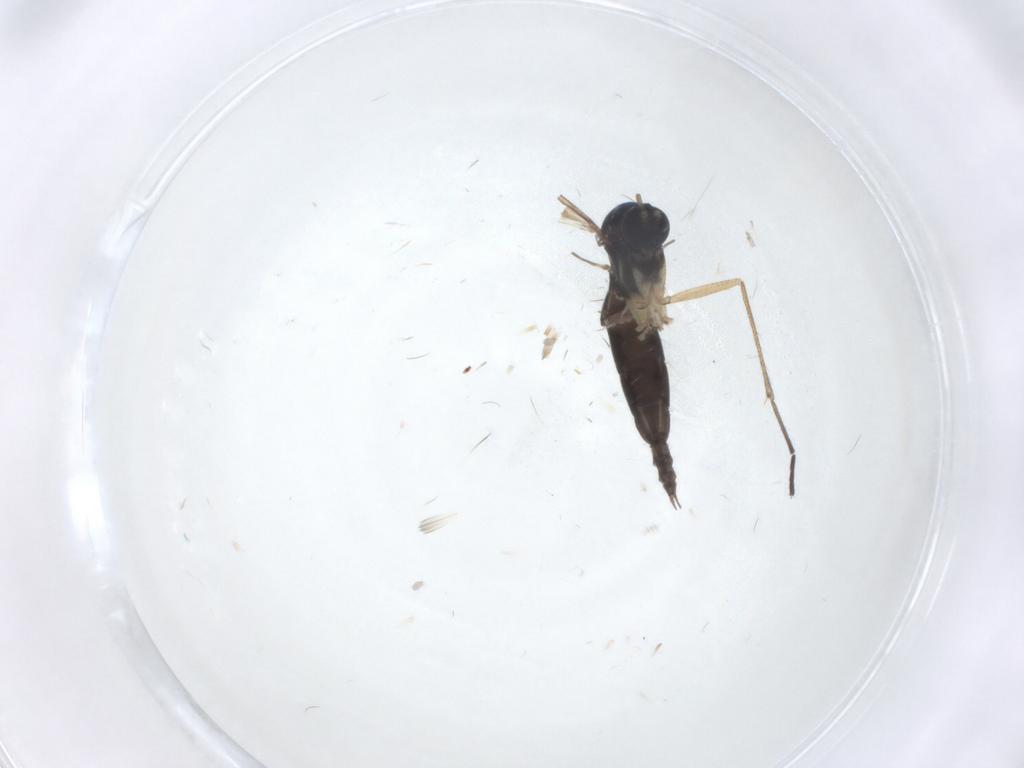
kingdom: Animalia
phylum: Arthropoda
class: Insecta
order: Diptera
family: Sciaridae
